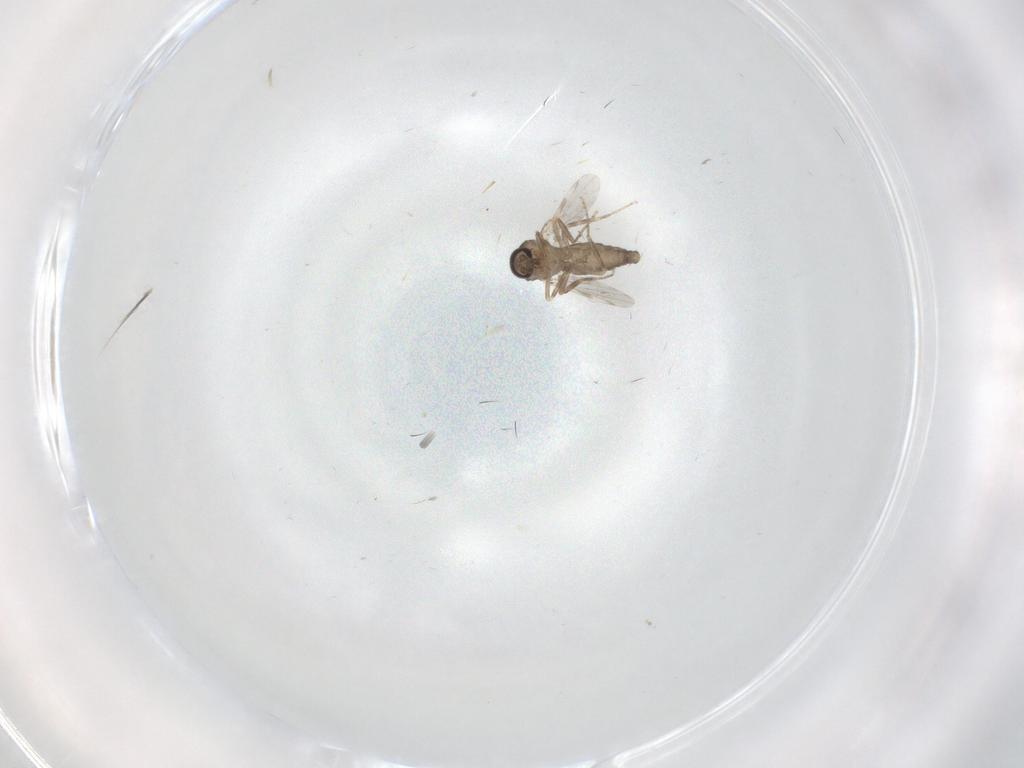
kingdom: Animalia
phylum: Arthropoda
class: Insecta
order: Diptera
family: Ceratopogonidae
